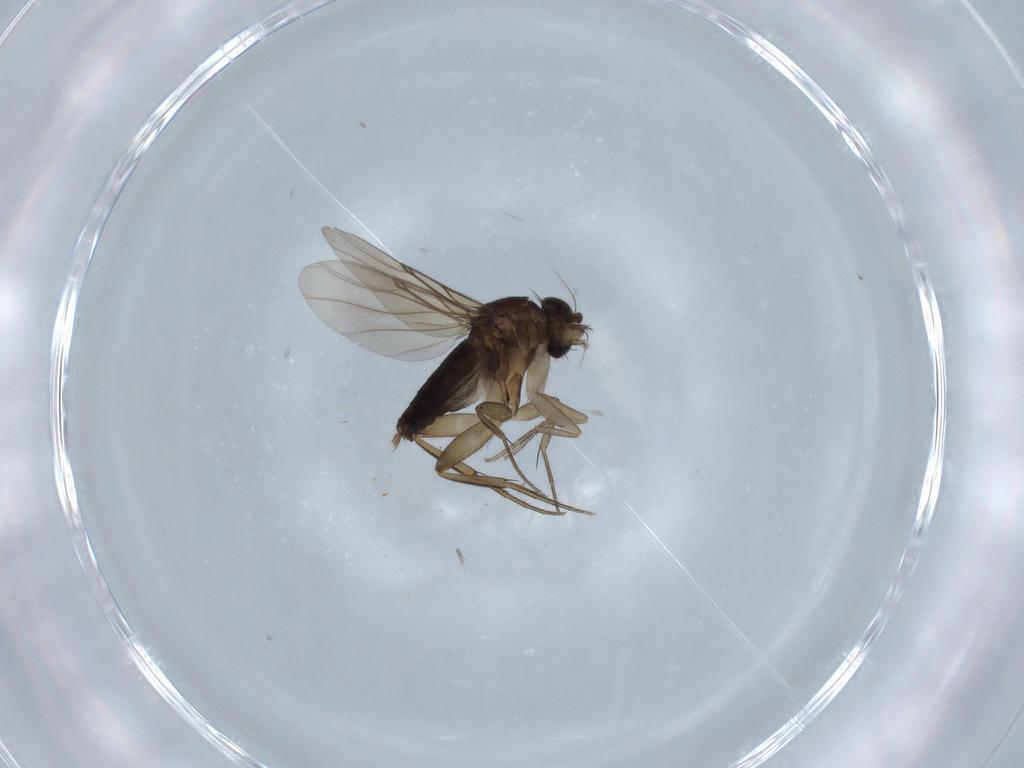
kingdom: Animalia
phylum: Arthropoda
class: Insecta
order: Diptera
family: Phoridae
